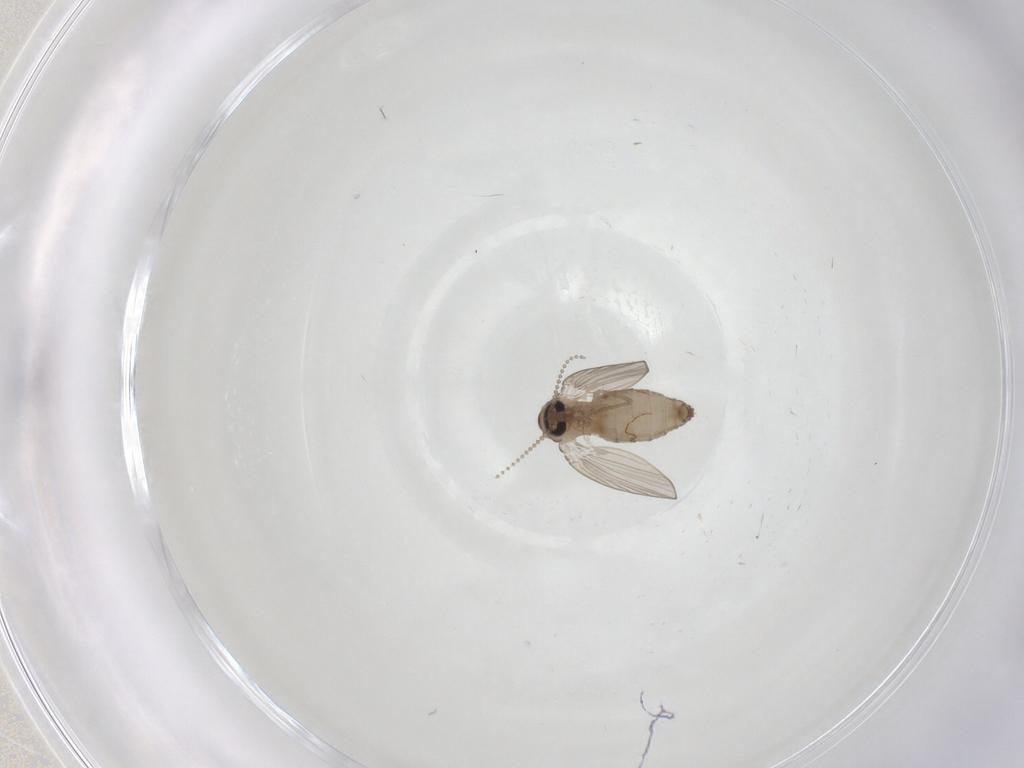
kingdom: Animalia
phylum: Arthropoda
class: Insecta
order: Diptera
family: Psychodidae
